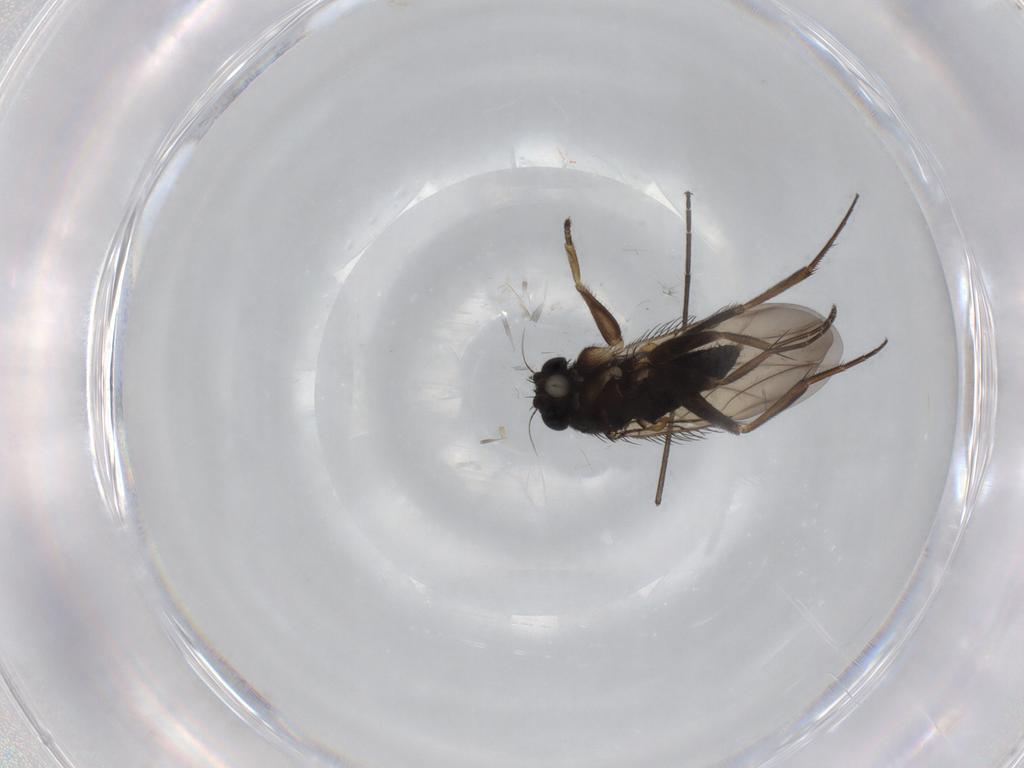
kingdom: Animalia
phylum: Arthropoda
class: Insecta
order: Diptera
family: Phoridae
